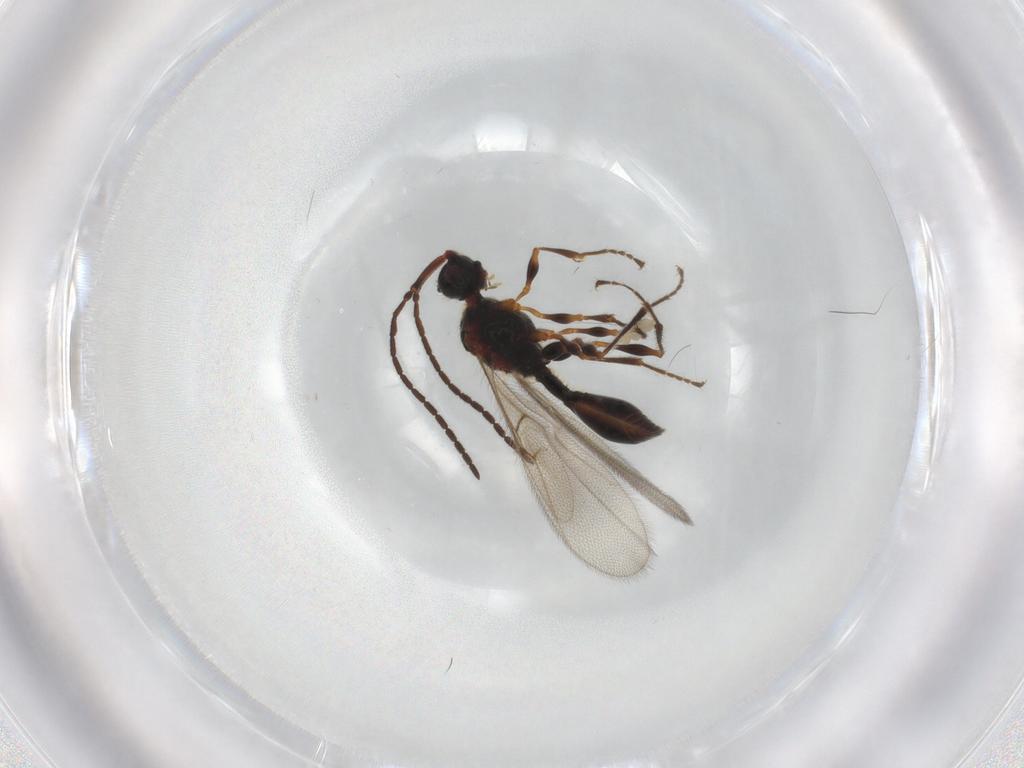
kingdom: Animalia
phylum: Arthropoda
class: Insecta
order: Hymenoptera
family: Diapriidae
